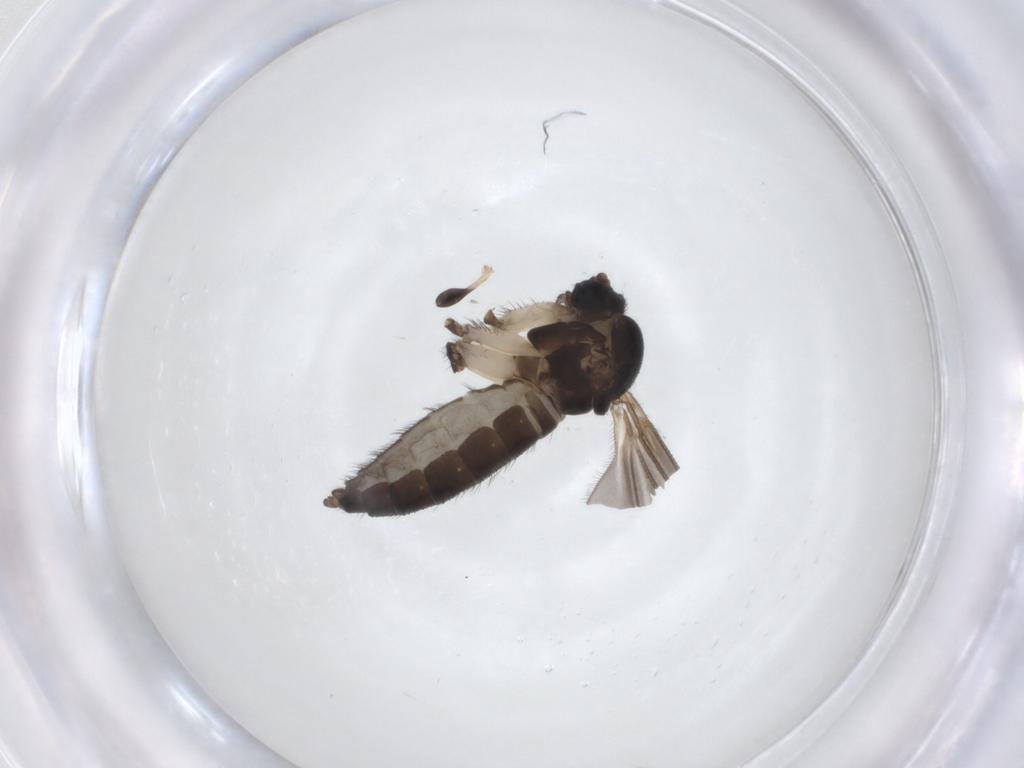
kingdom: Animalia
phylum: Arthropoda
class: Insecta
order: Diptera
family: Sciaridae
